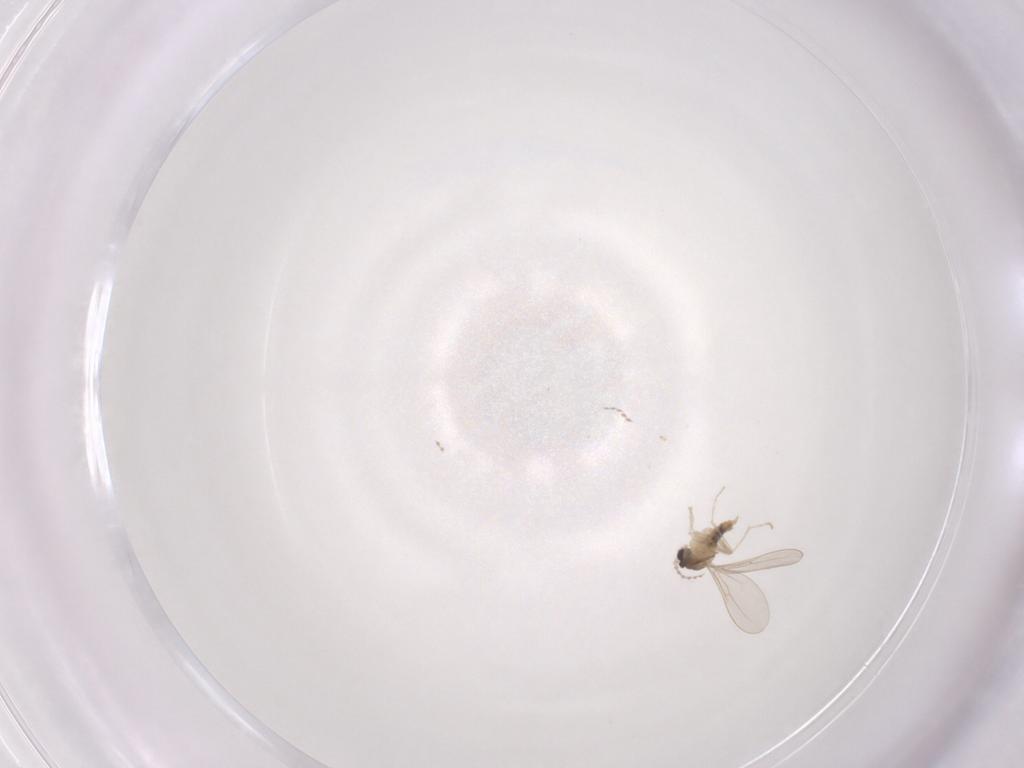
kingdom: Animalia
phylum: Arthropoda
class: Insecta
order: Diptera
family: Cecidomyiidae
